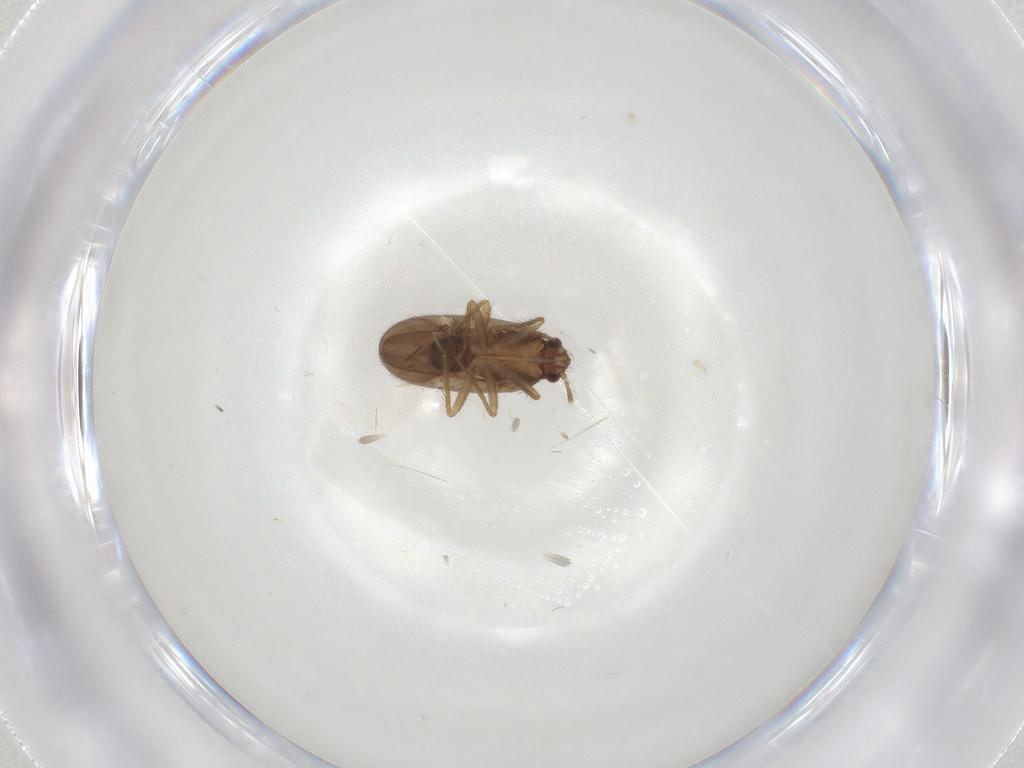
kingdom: Animalia
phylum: Arthropoda
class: Insecta
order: Hemiptera
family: Ceratocombidae
